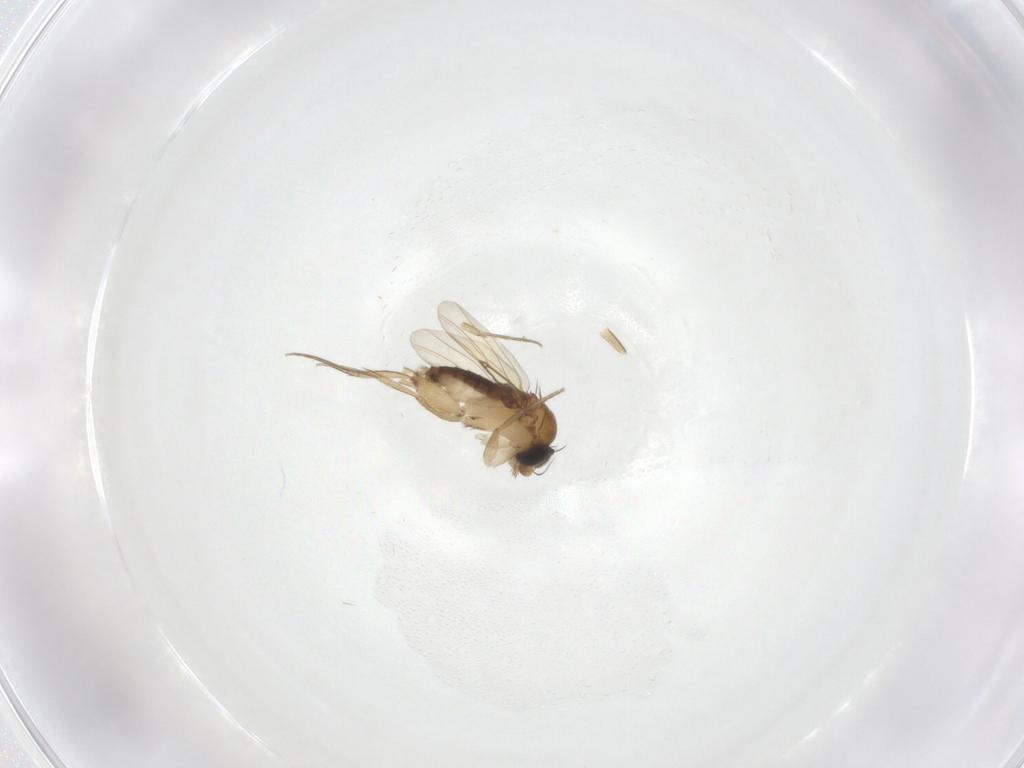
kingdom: Animalia
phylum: Arthropoda
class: Insecta
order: Diptera
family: Phoridae
